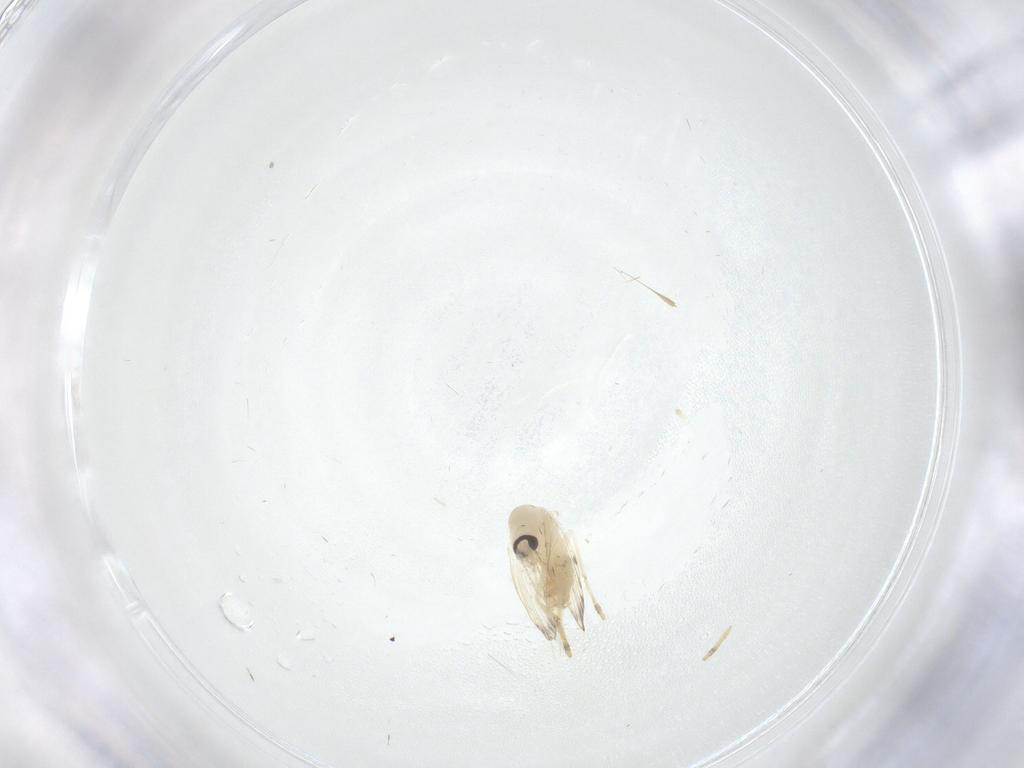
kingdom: Animalia
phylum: Arthropoda
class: Insecta
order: Diptera
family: Psychodidae
